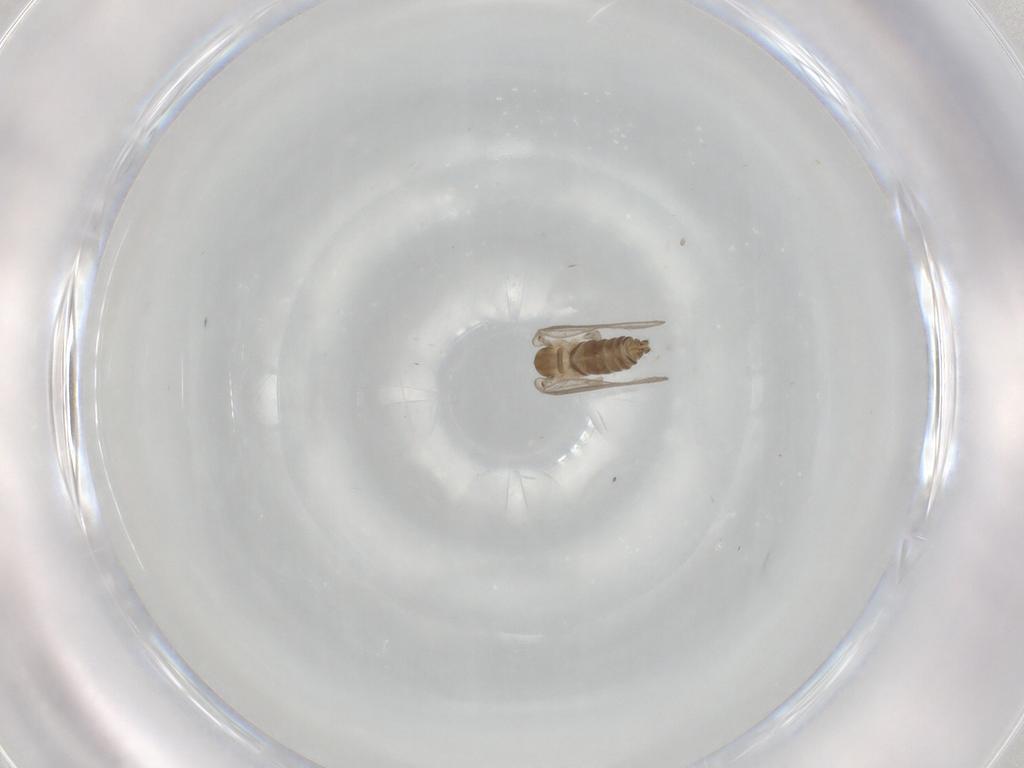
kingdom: Animalia
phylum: Arthropoda
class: Insecta
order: Diptera
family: Psychodidae
